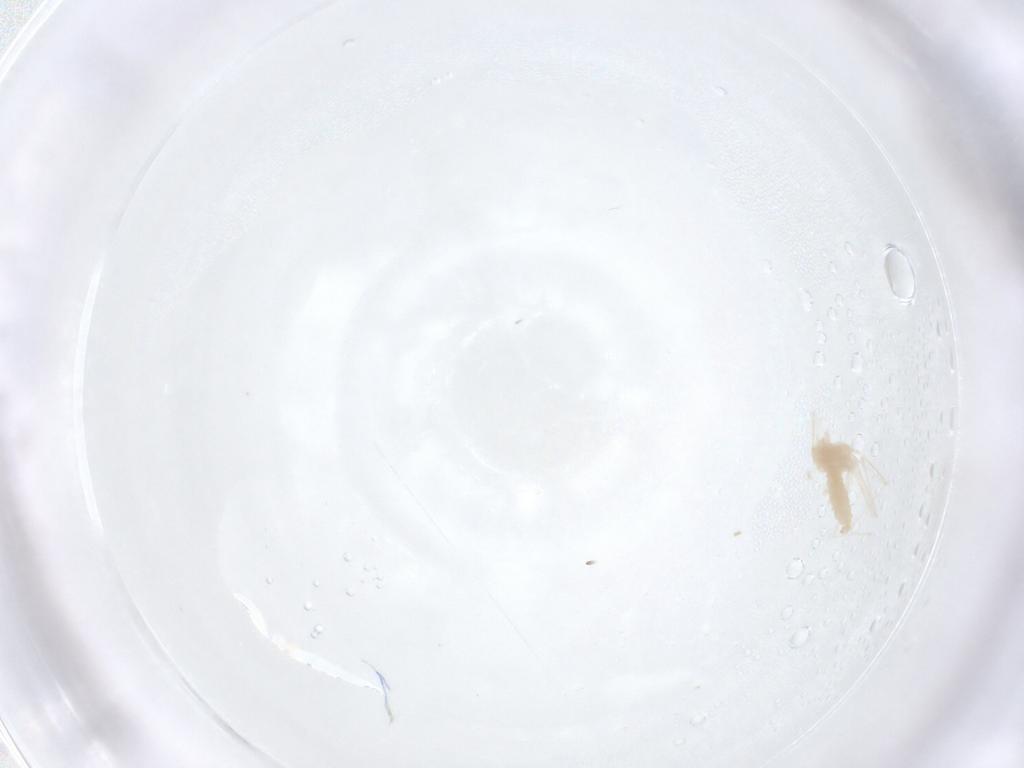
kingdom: Animalia
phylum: Arthropoda
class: Insecta
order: Diptera
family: Cecidomyiidae
